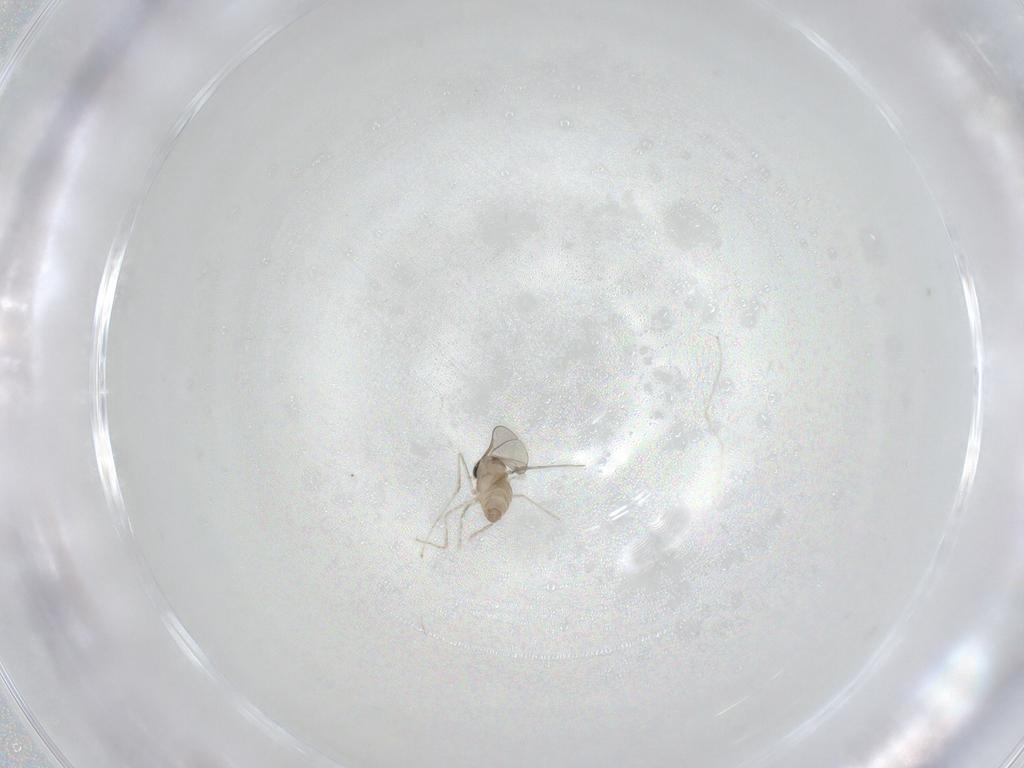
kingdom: Animalia
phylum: Arthropoda
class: Insecta
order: Diptera
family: Cecidomyiidae
